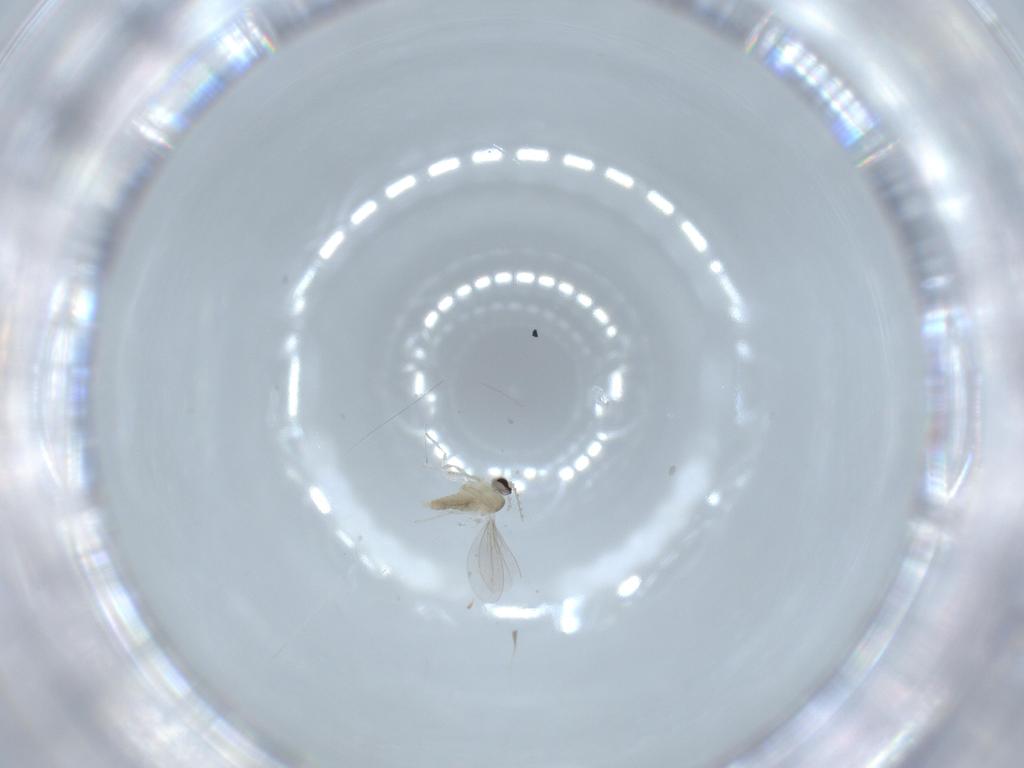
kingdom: Animalia
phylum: Arthropoda
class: Insecta
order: Diptera
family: Cecidomyiidae
